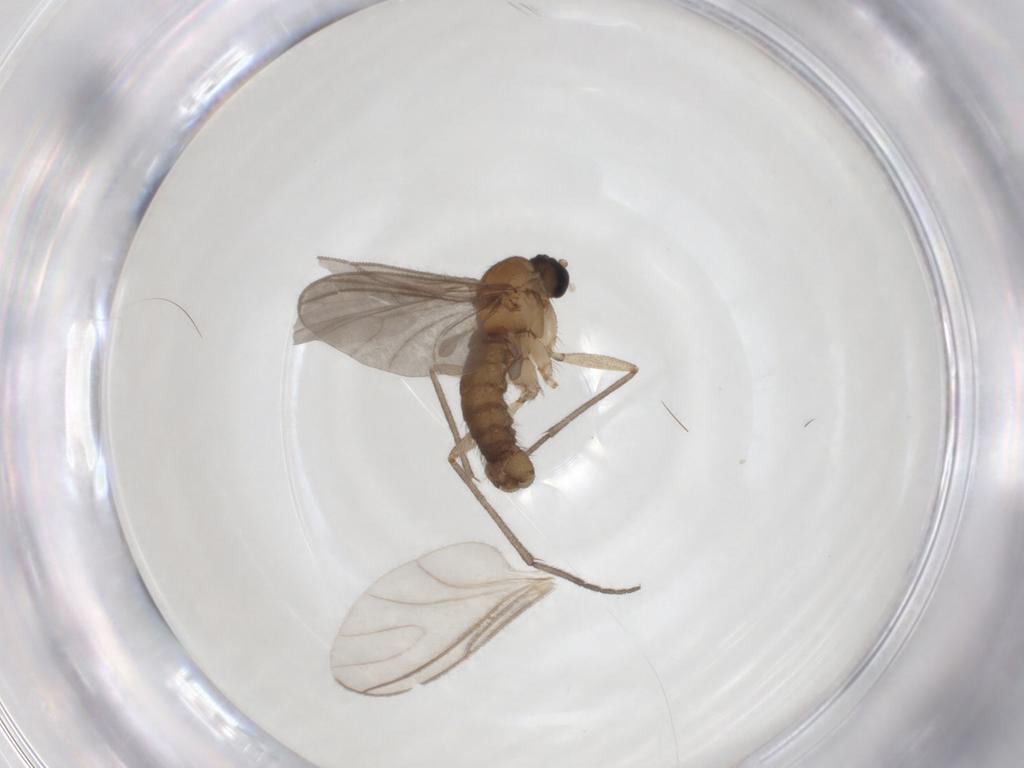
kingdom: Animalia
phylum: Arthropoda
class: Insecta
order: Diptera
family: Sciaridae
